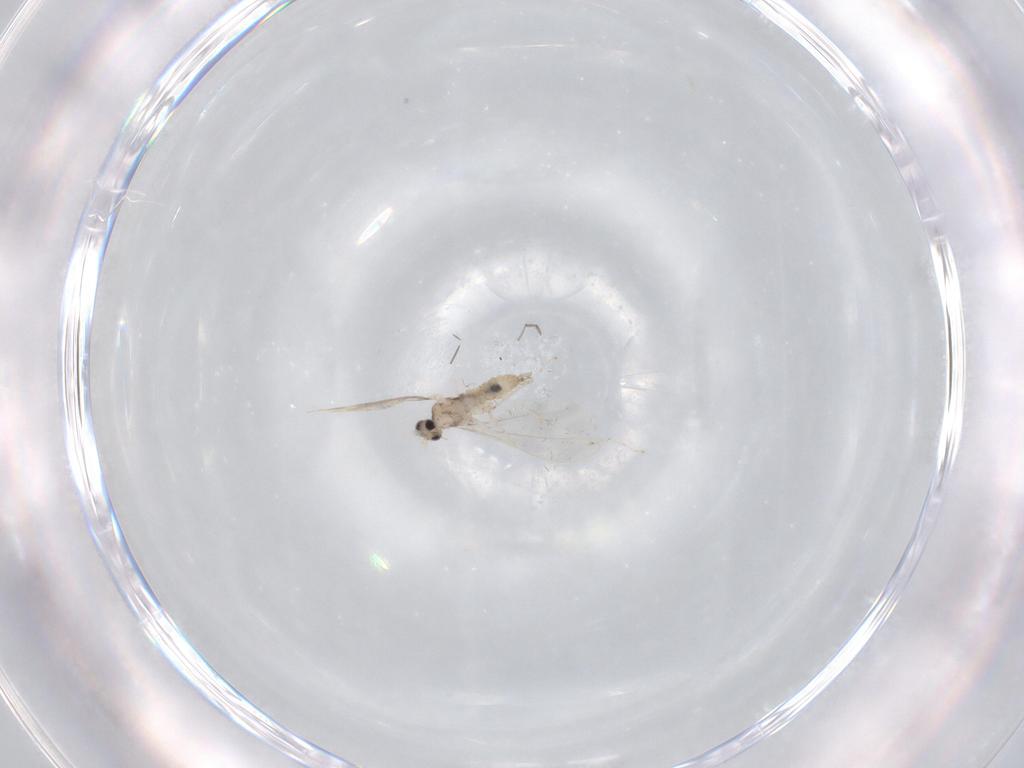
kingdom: Animalia
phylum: Arthropoda
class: Insecta
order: Diptera
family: Cecidomyiidae
